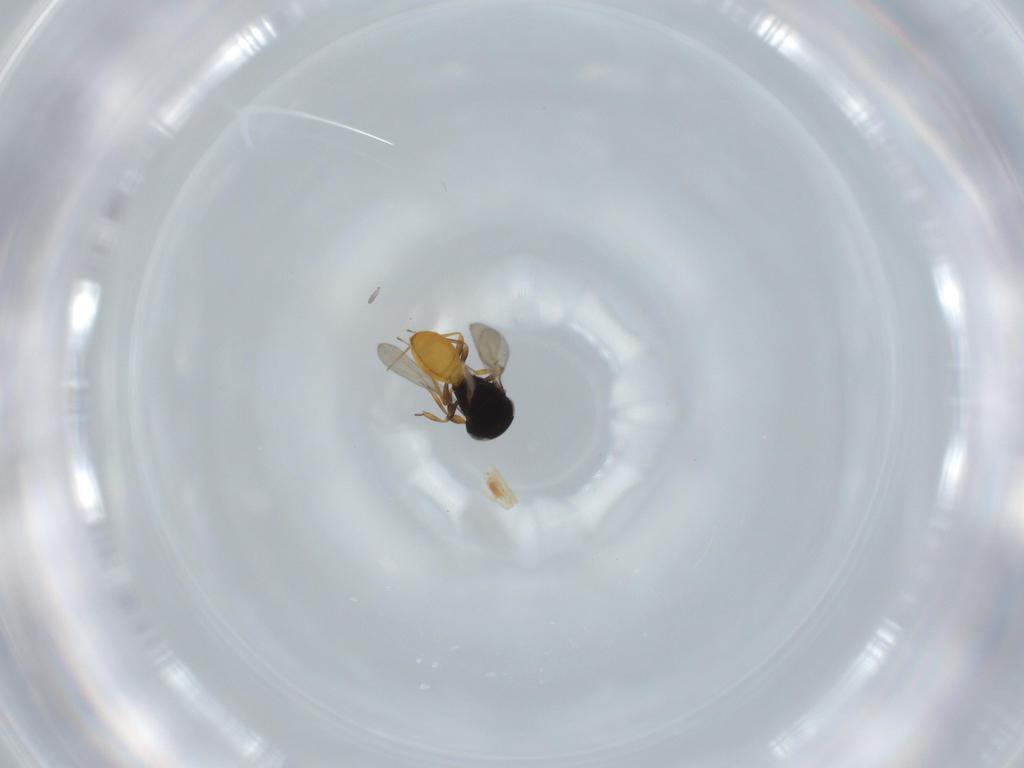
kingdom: Animalia
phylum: Arthropoda
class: Insecta
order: Hymenoptera
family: Scelionidae
